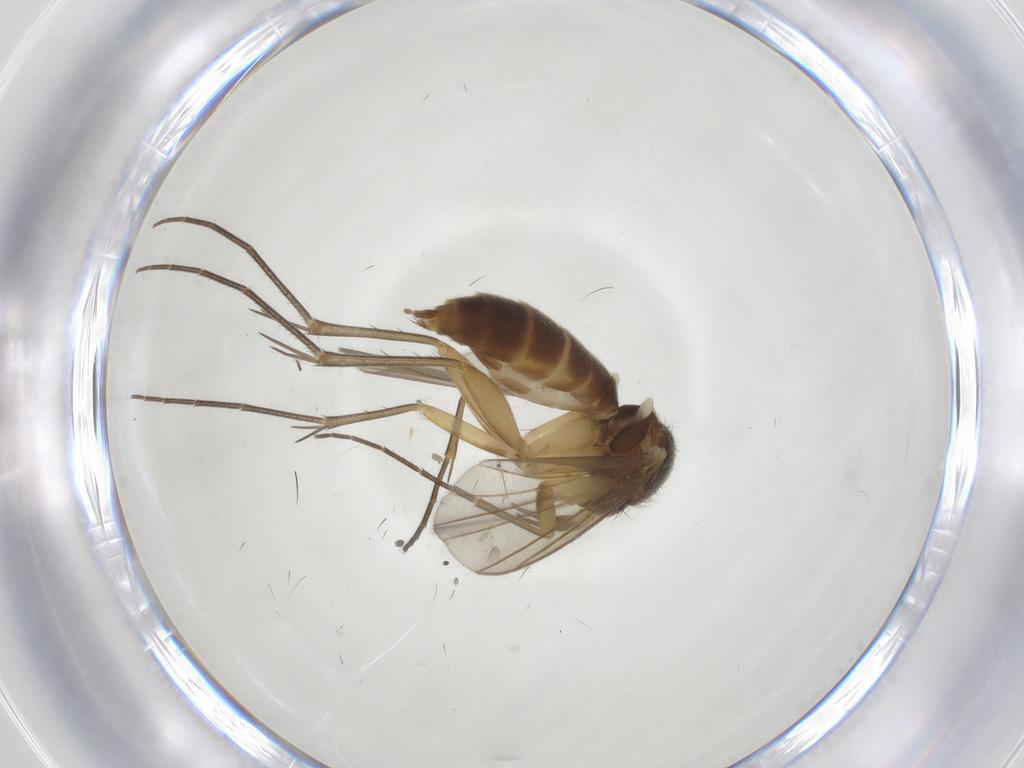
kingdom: Animalia
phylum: Arthropoda
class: Insecta
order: Diptera
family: Mycetophilidae
